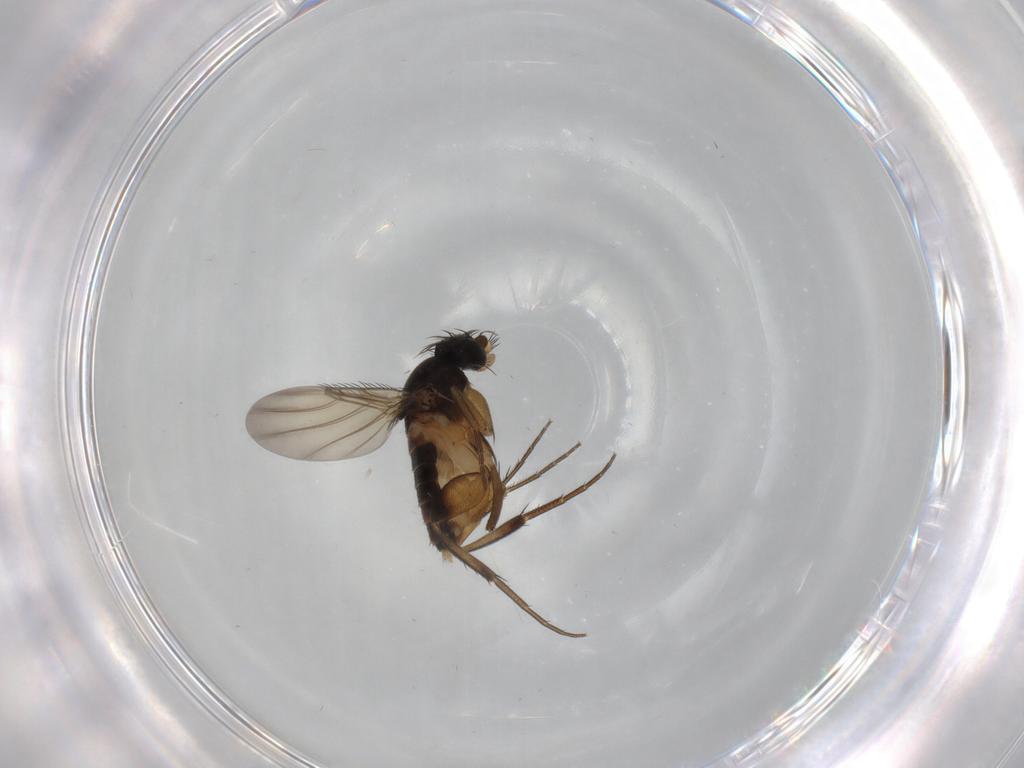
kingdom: Animalia
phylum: Arthropoda
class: Insecta
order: Diptera
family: Phoridae
